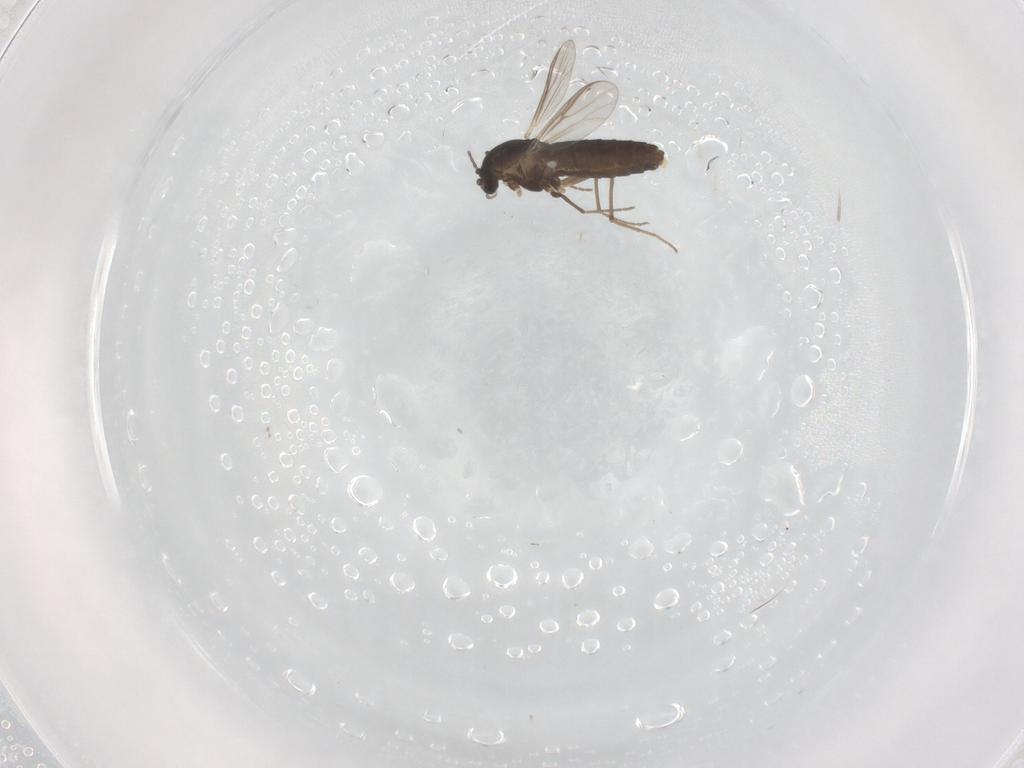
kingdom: Animalia
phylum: Arthropoda
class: Insecta
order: Diptera
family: Chironomidae
